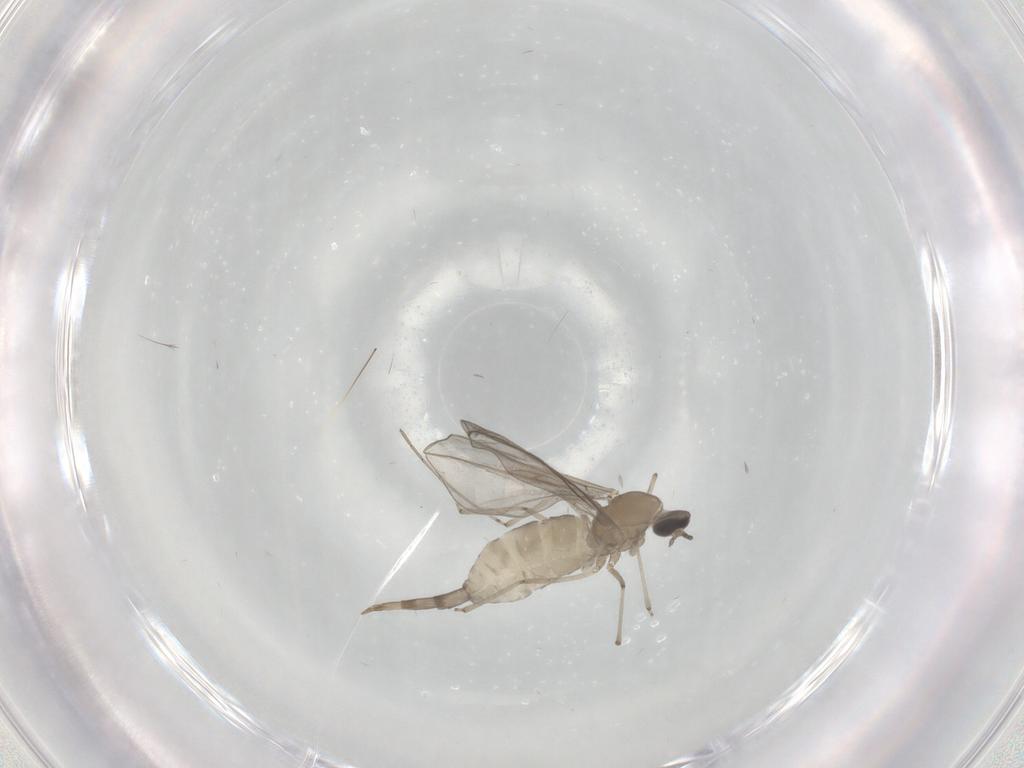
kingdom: Animalia
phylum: Arthropoda
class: Insecta
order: Diptera
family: Cecidomyiidae
